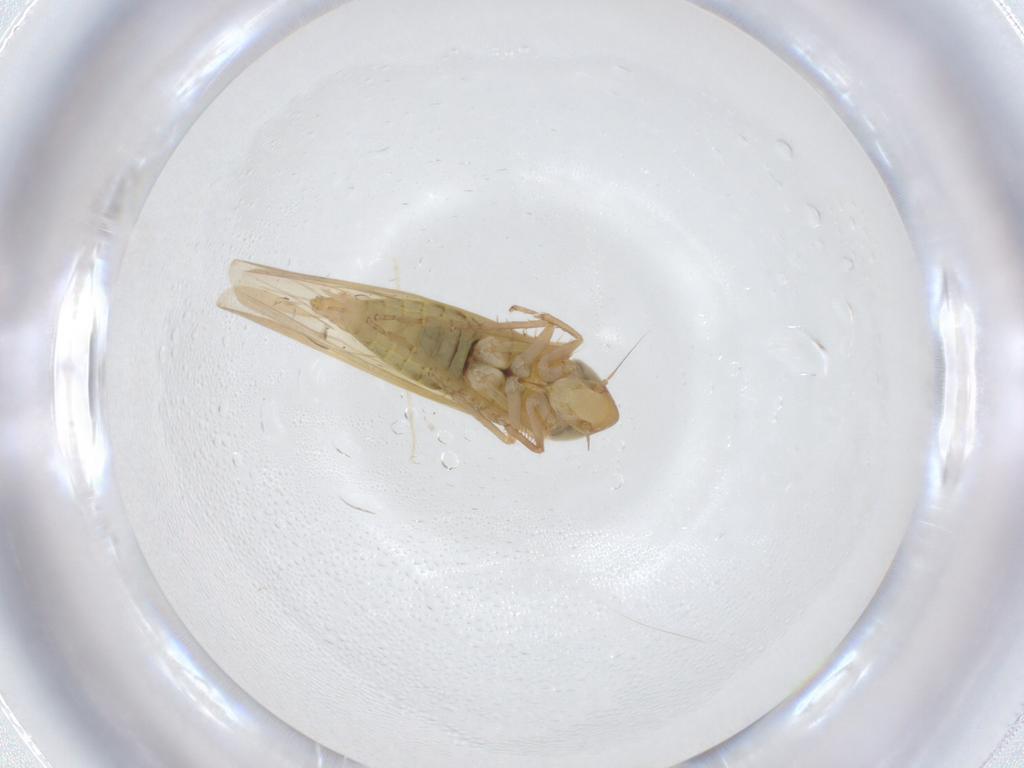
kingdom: Animalia
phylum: Arthropoda
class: Insecta
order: Hemiptera
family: Cicadellidae
